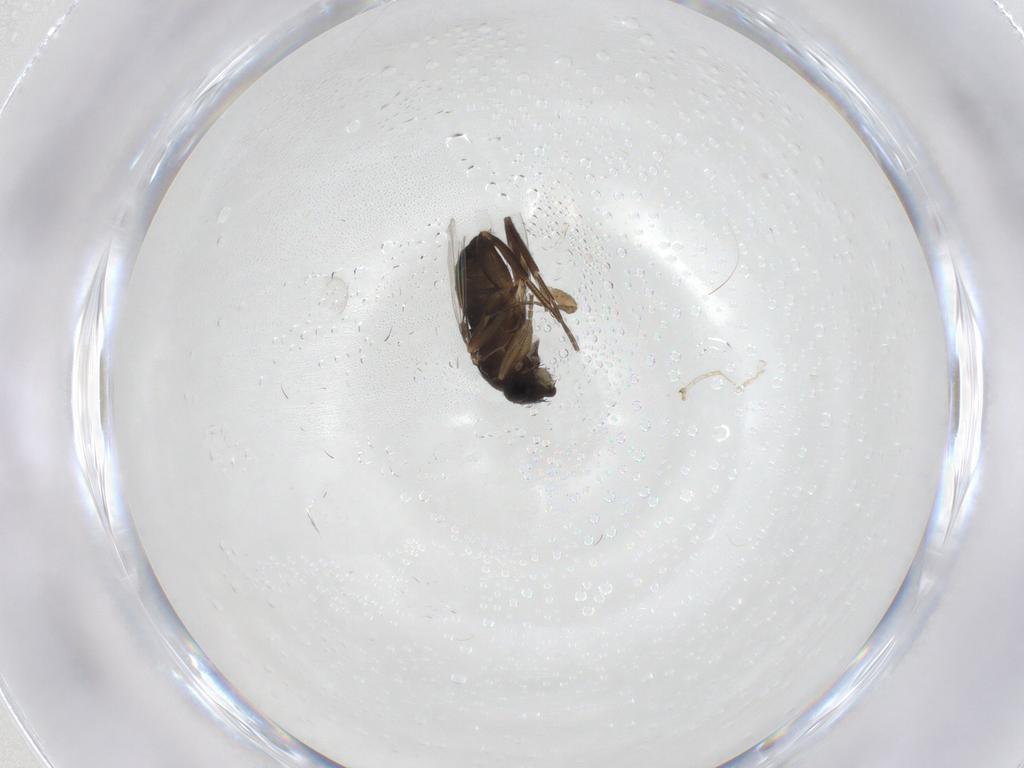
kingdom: Animalia
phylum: Arthropoda
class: Insecta
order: Diptera
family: Phoridae
